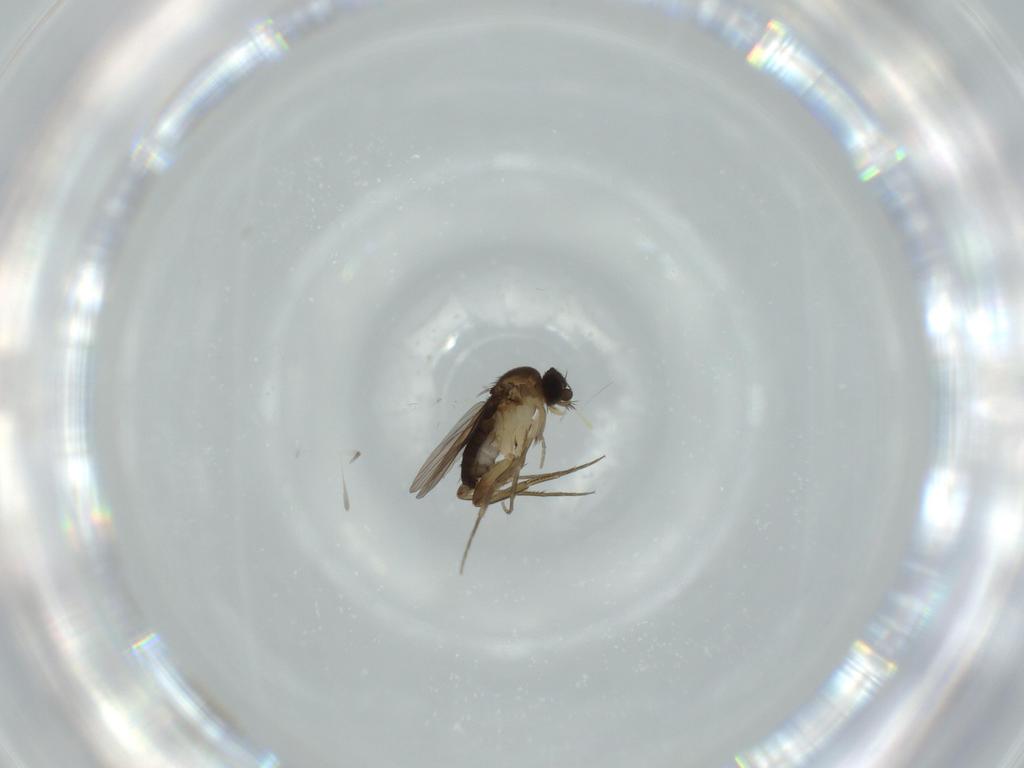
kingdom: Animalia
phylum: Arthropoda
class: Insecta
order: Diptera
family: Phoridae
